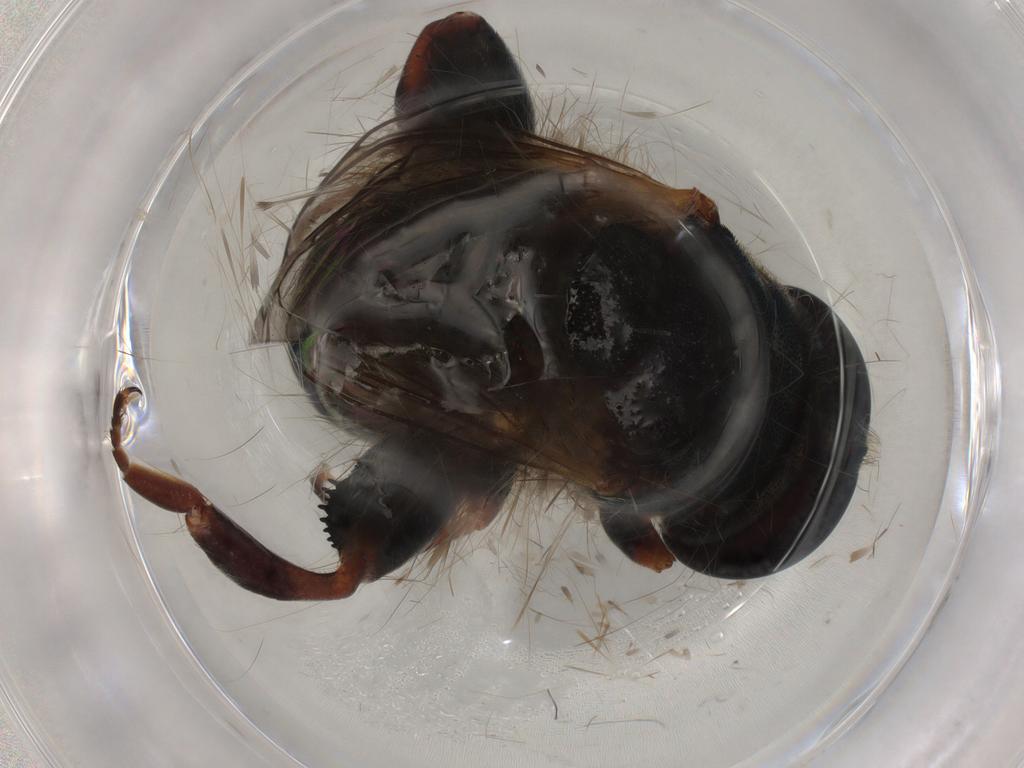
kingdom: Animalia
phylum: Arthropoda
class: Insecta
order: Diptera
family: Syrphidae
